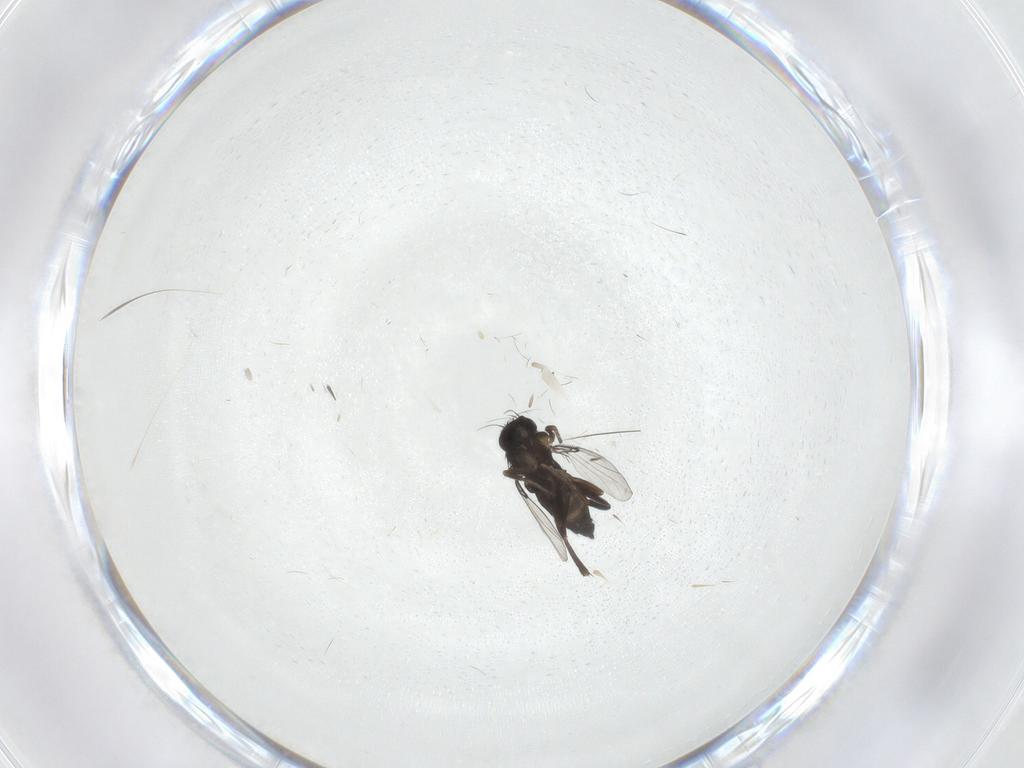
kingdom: Animalia
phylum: Arthropoda
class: Insecta
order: Diptera
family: Phoridae
